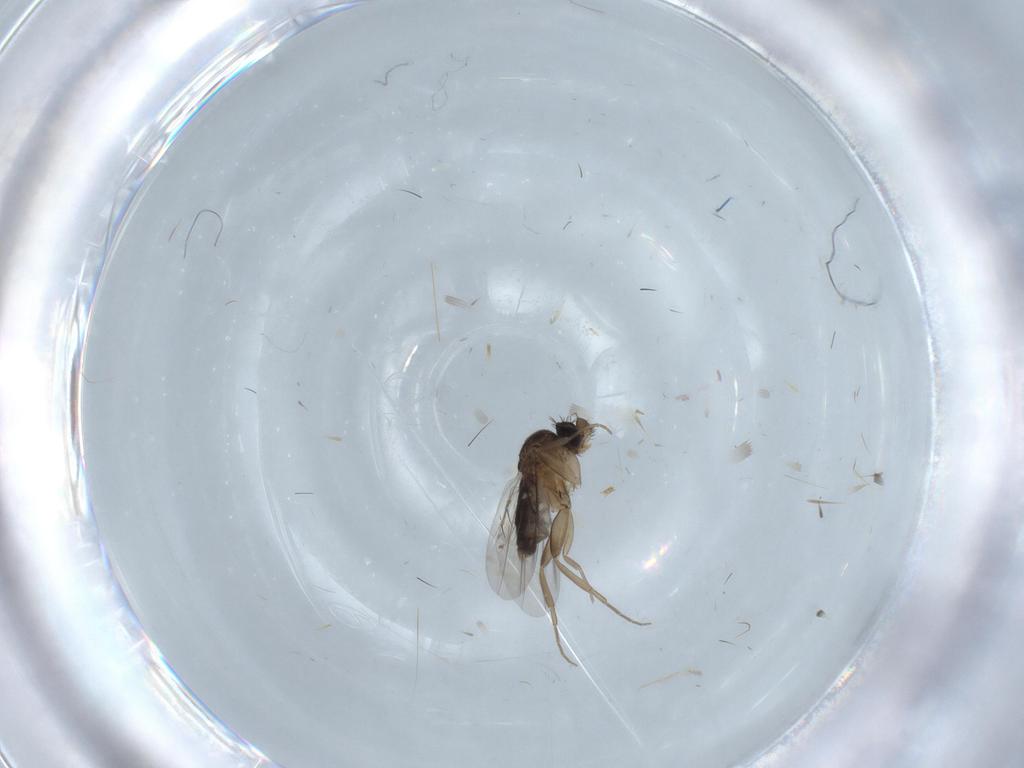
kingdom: Animalia
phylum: Arthropoda
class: Insecta
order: Diptera
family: Phoridae
